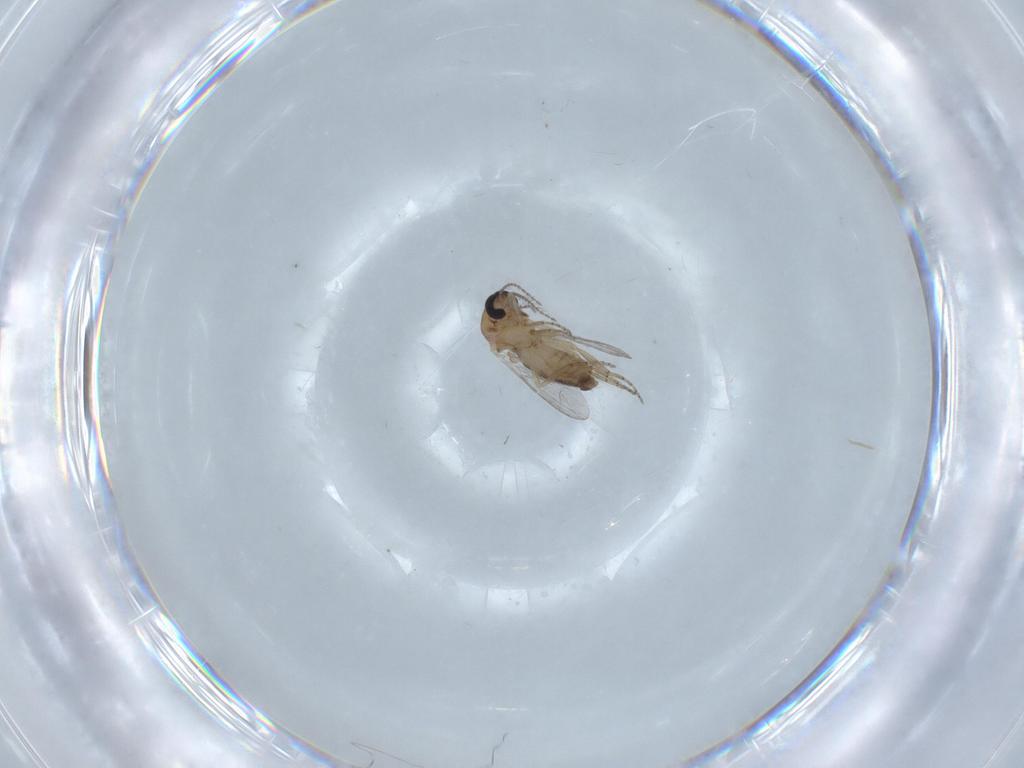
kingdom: Animalia
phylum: Arthropoda
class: Insecta
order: Diptera
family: Ceratopogonidae
